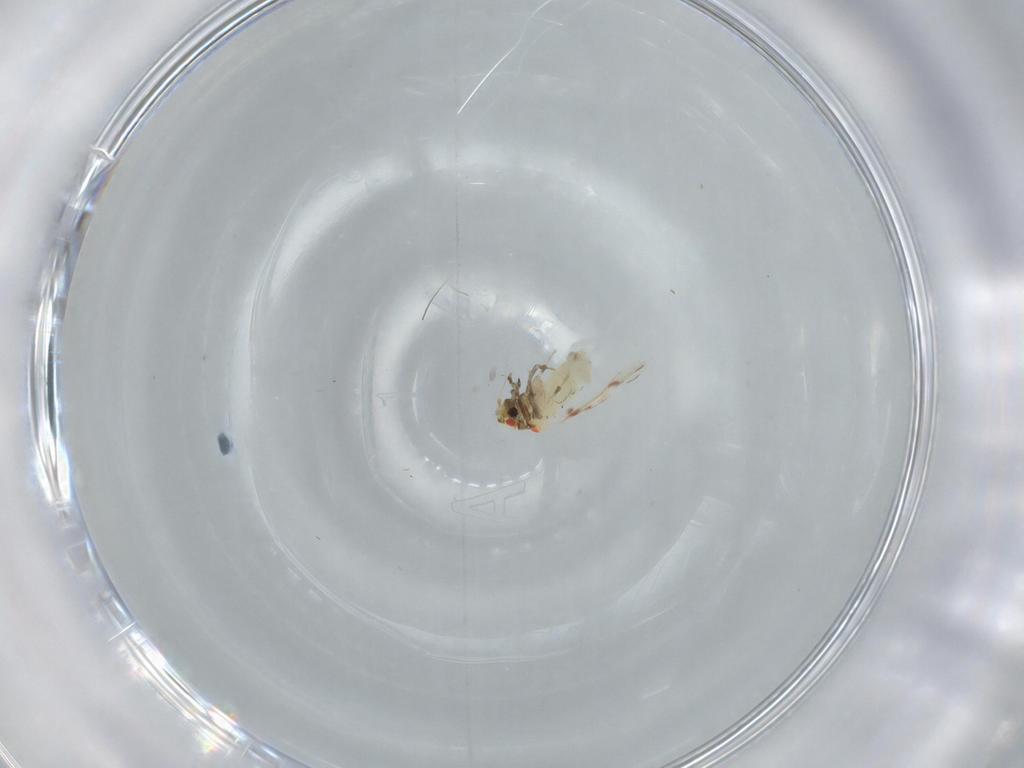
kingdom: Animalia
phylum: Arthropoda
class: Insecta
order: Hemiptera
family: Aleyrodidae
